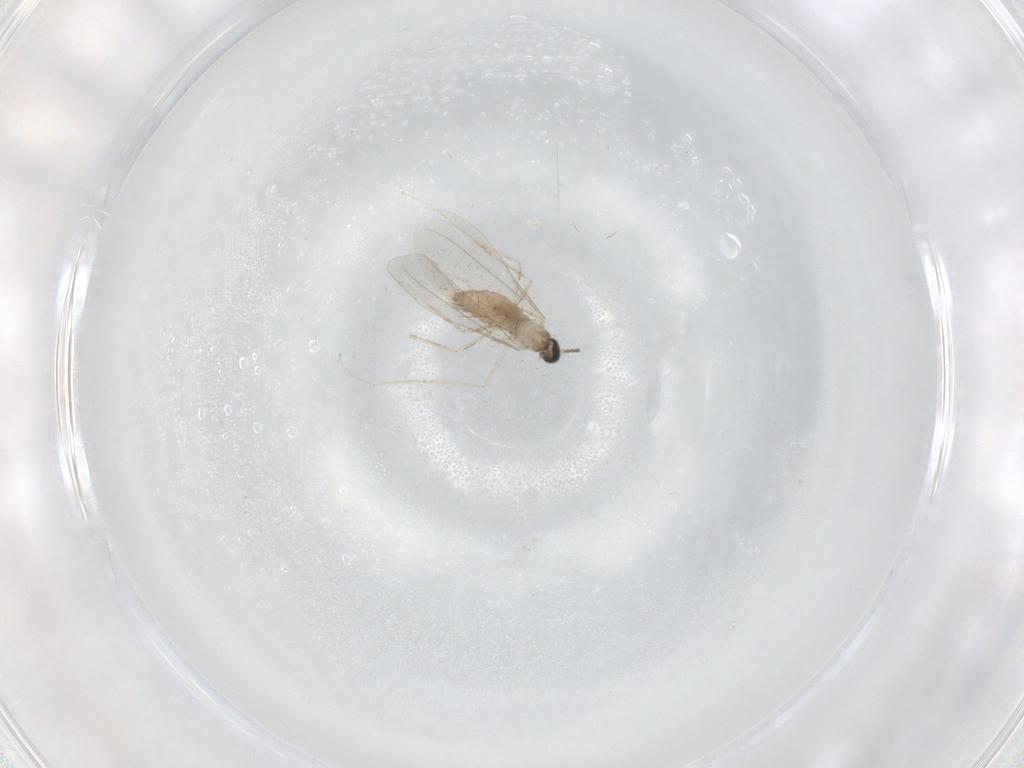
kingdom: Animalia
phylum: Arthropoda
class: Insecta
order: Diptera
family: Cecidomyiidae
